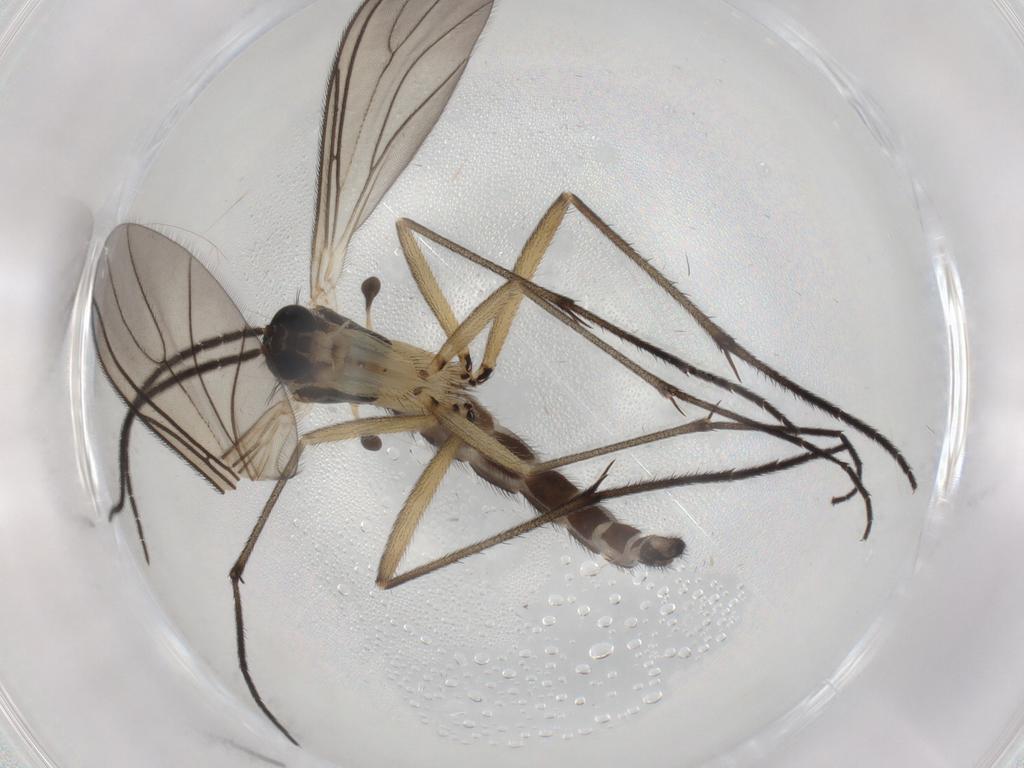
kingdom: Animalia
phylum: Arthropoda
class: Insecta
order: Diptera
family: Sciaridae
